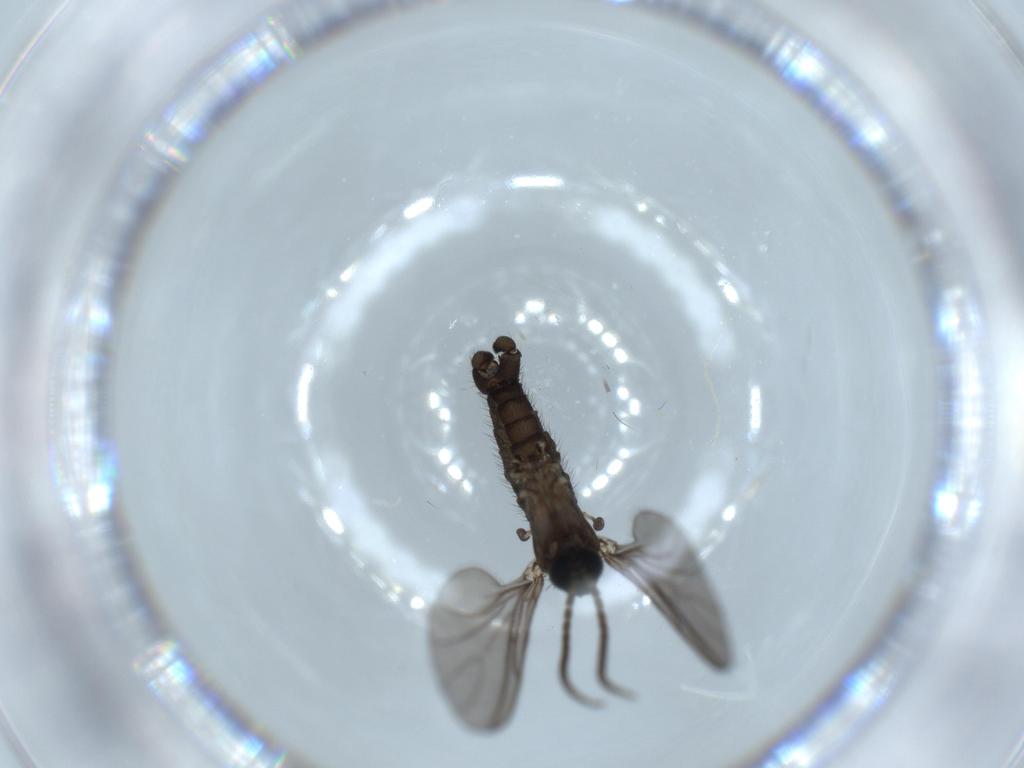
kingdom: Animalia
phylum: Arthropoda
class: Insecta
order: Diptera
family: Sciaridae
